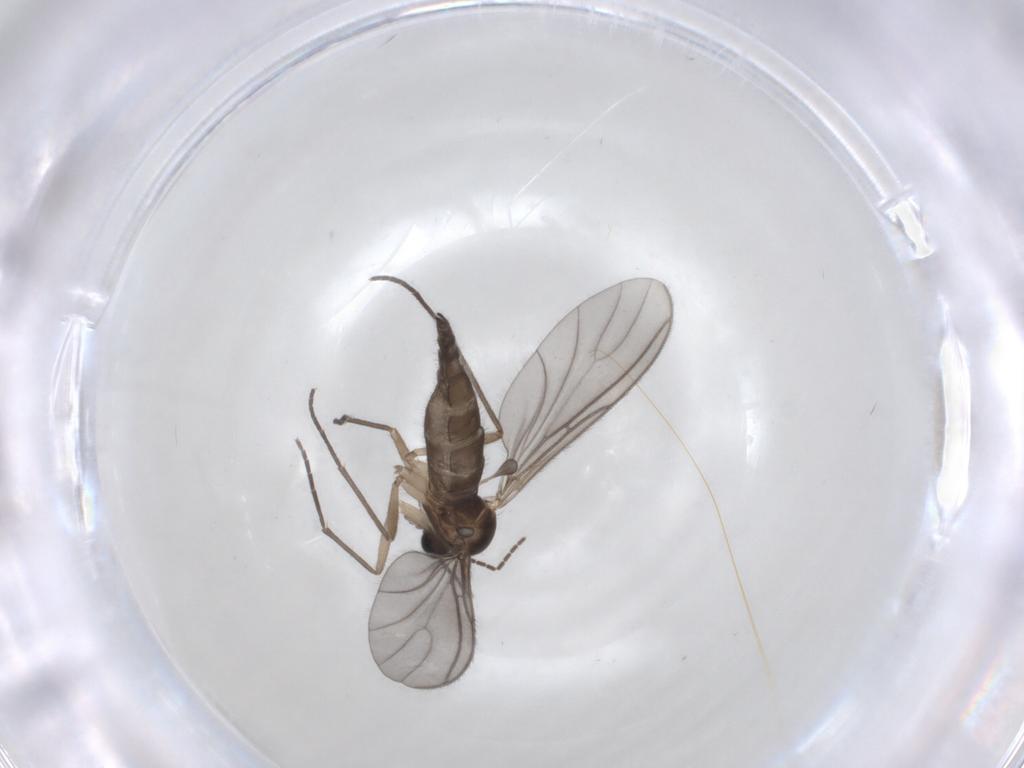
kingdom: Animalia
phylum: Arthropoda
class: Insecta
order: Diptera
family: Sciaridae
